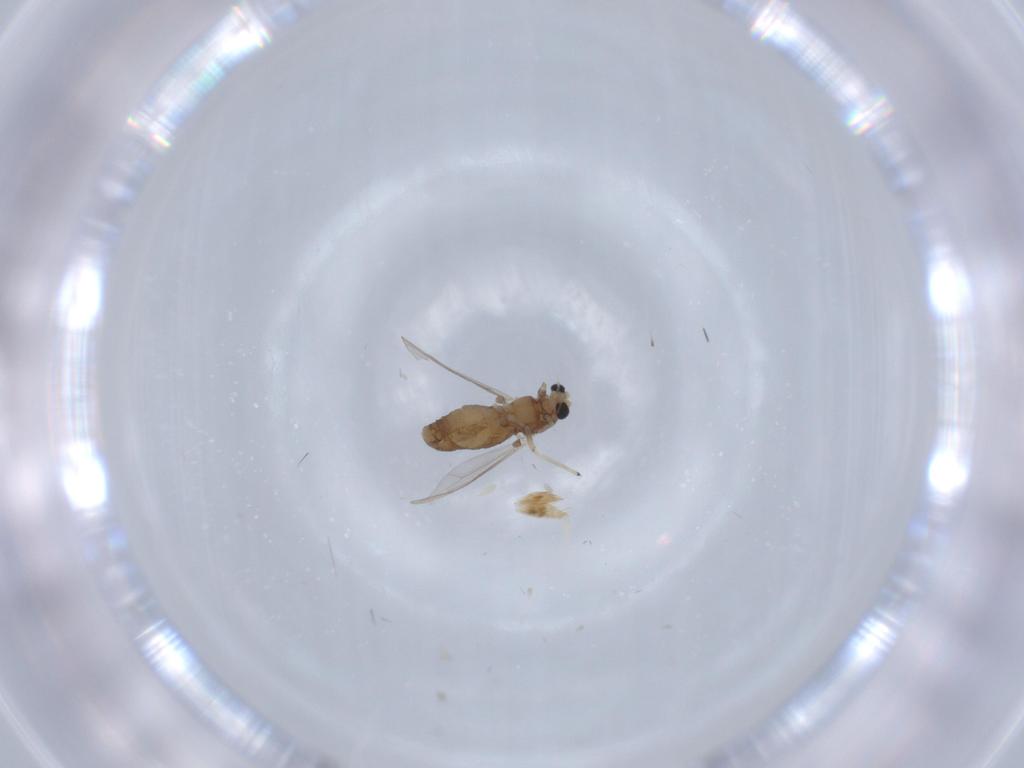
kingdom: Animalia
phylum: Arthropoda
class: Insecta
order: Diptera
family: Chironomidae
